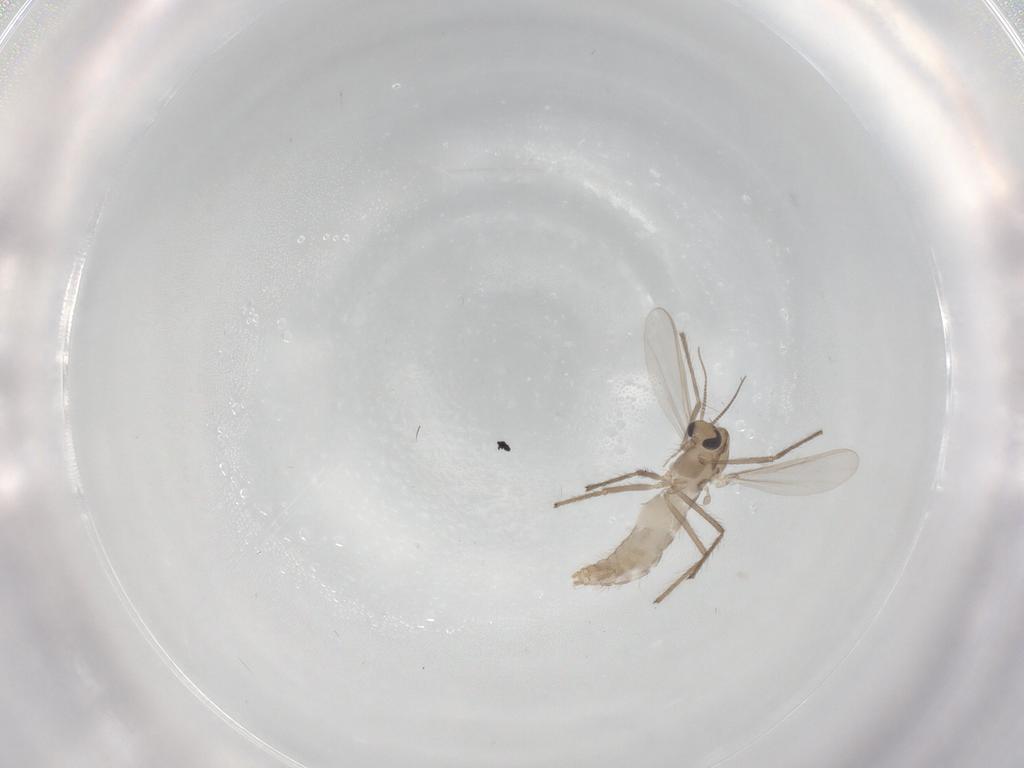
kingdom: Animalia
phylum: Arthropoda
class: Insecta
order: Diptera
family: Chironomidae
